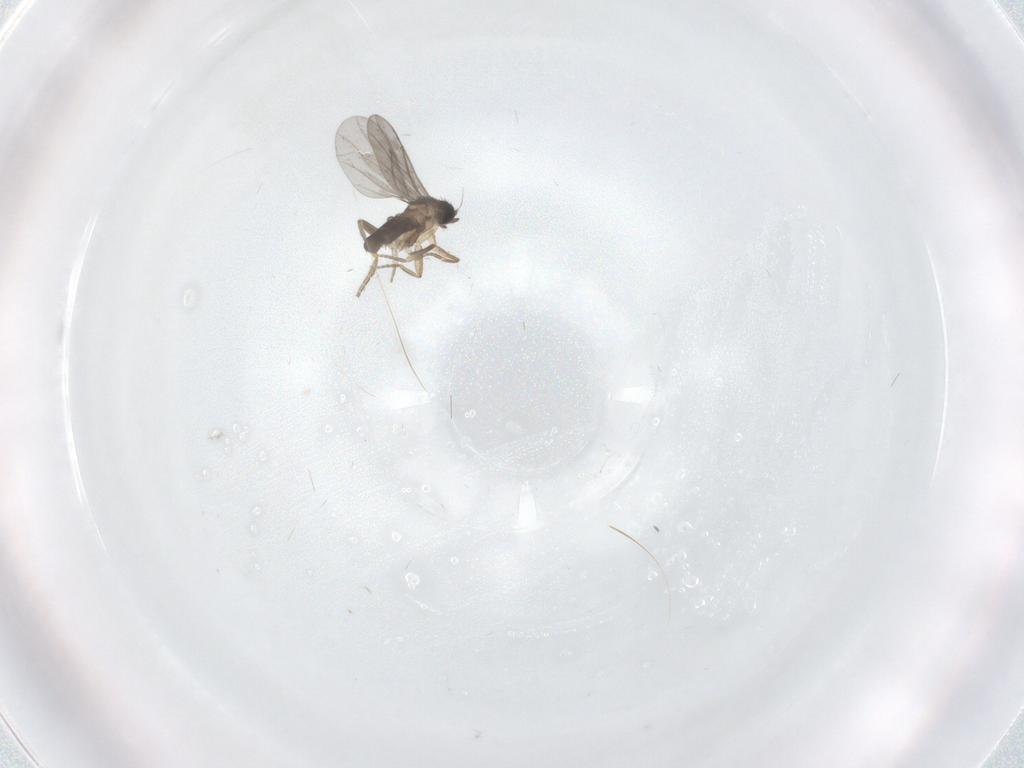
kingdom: Animalia
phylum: Arthropoda
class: Insecta
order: Diptera
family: Cecidomyiidae
